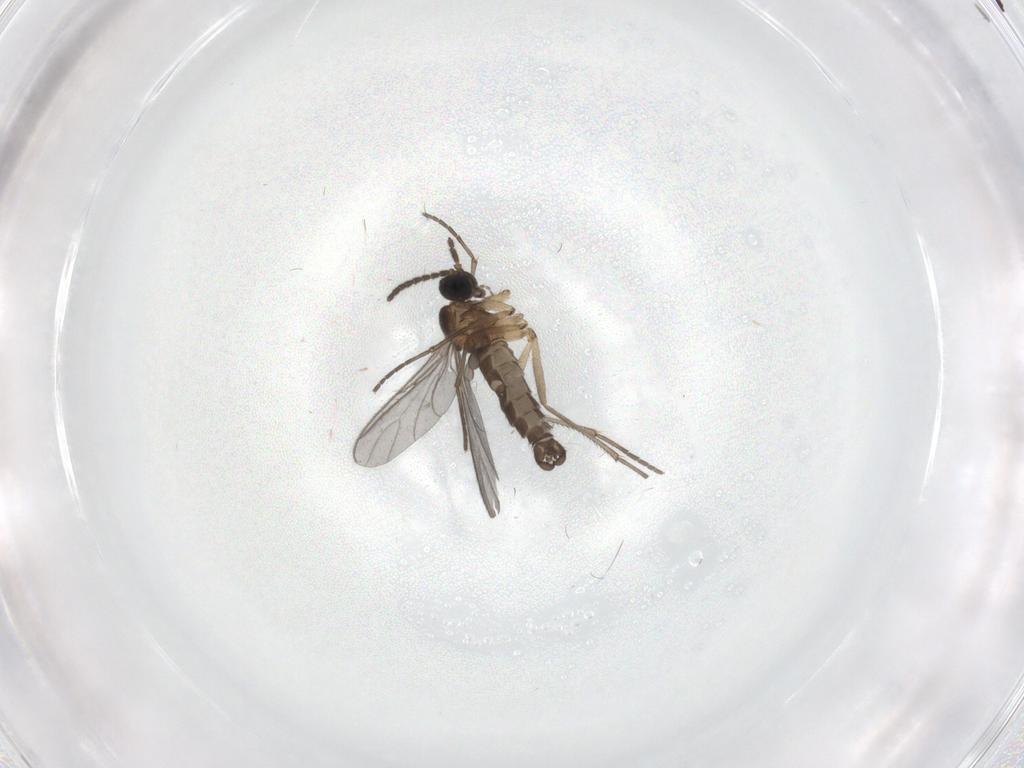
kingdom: Animalia
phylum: Arthropoda
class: Insecta
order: Diptera
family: Sciaridae
